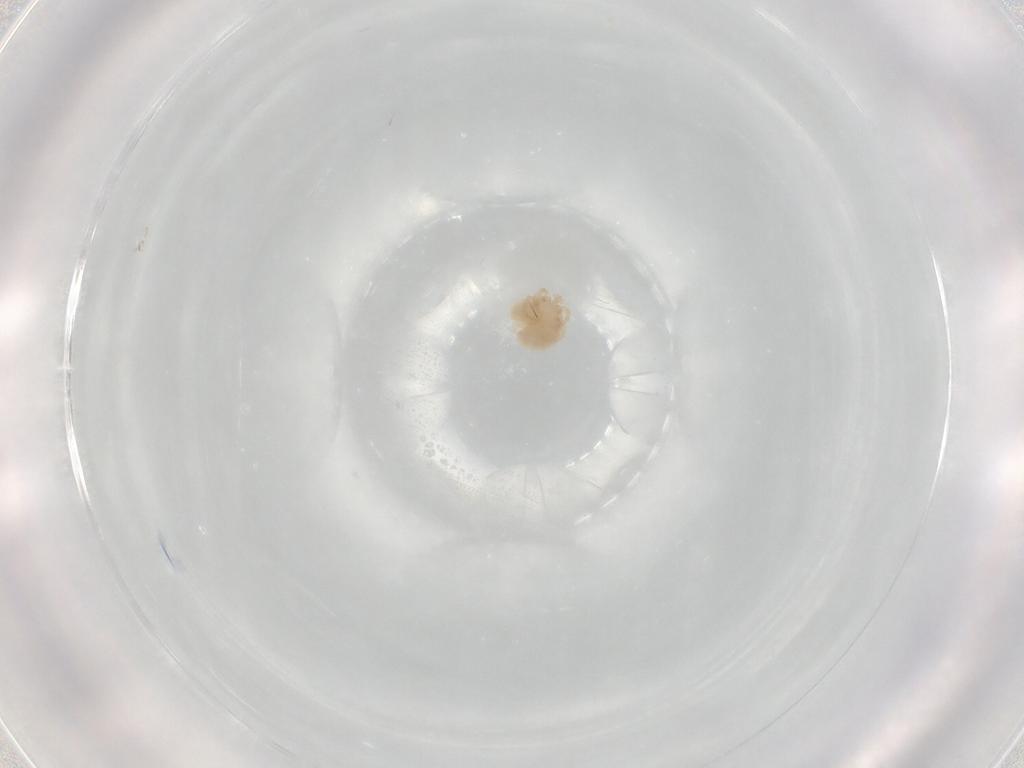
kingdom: Animalia
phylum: Arthropoda
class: Arachnida
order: Trombidiformes
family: Lebertiidae
